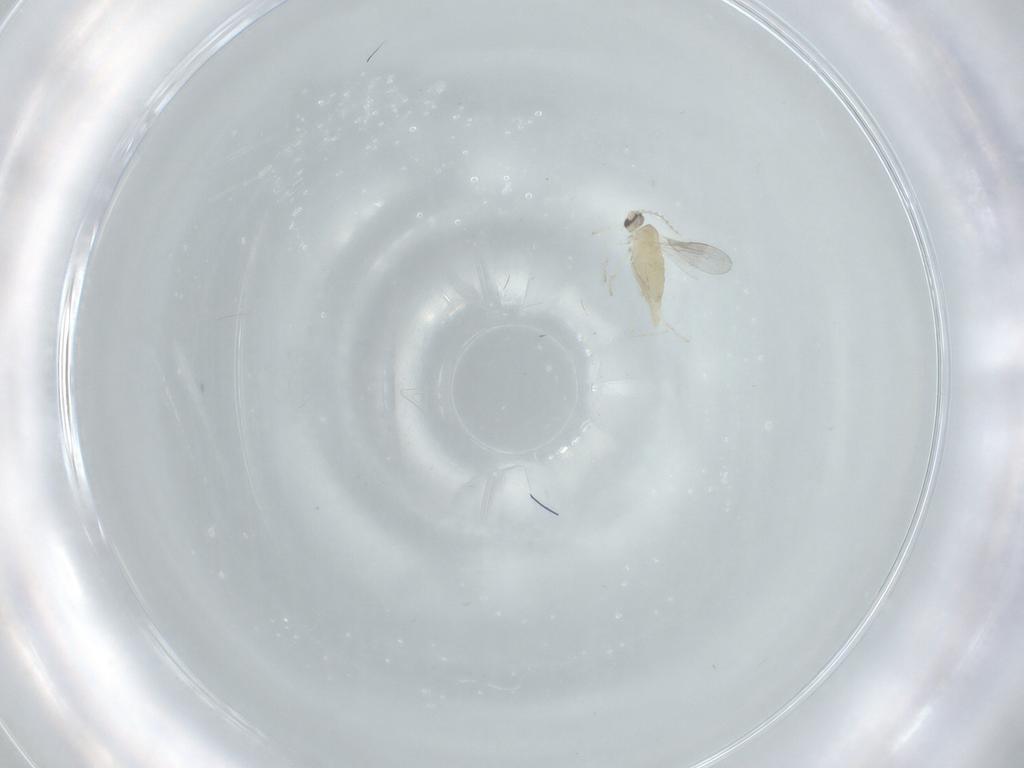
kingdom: Animalia
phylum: Arthropoda
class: Insecta
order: Diptera
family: Cecidomyiidae
